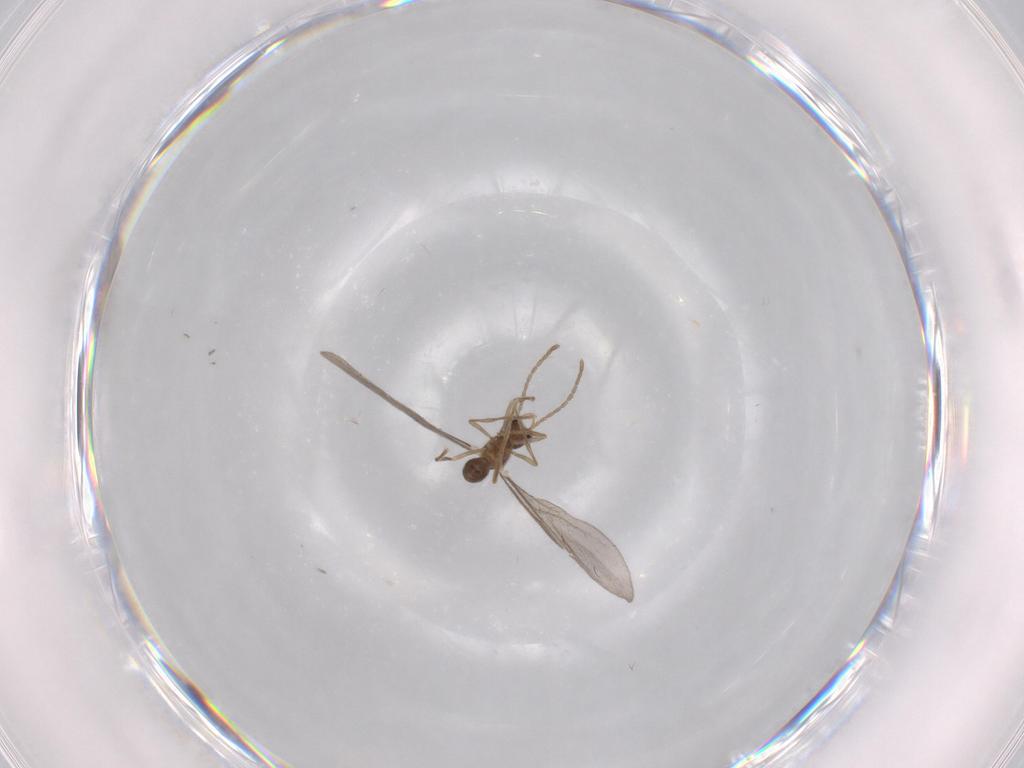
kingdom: Animalia
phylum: Arthropoda
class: Insecta
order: Hymenoptera
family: Formicidae
